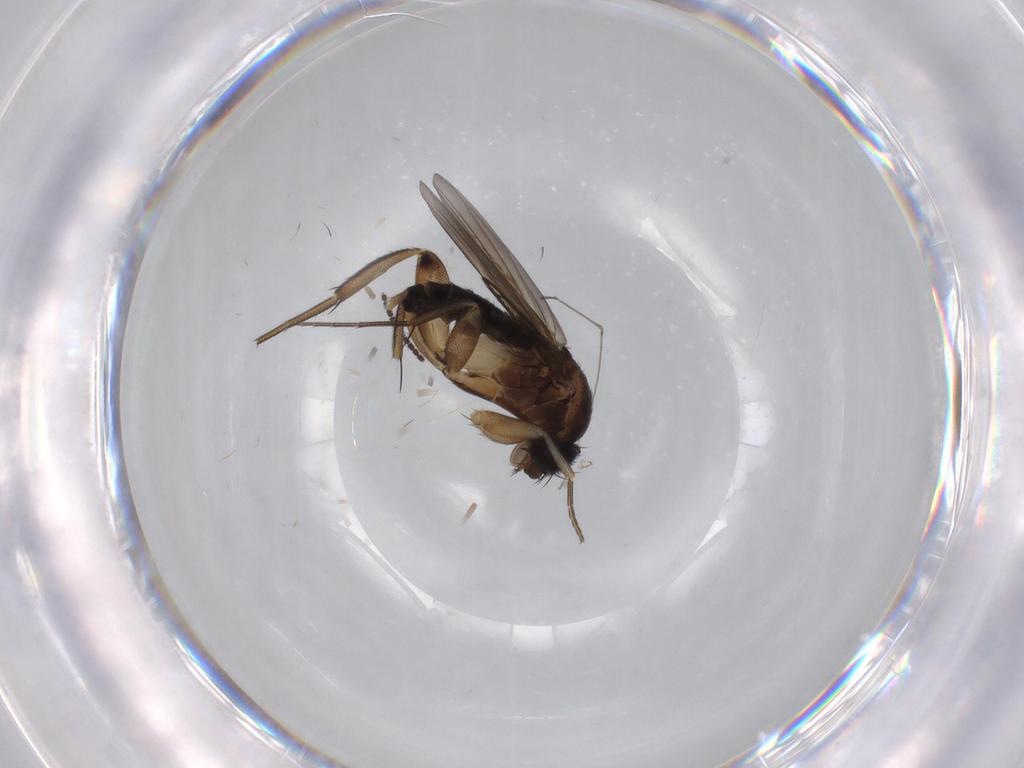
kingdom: Animalia
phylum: Arthropoda
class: Insecta
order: Diptera
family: Phoridae
